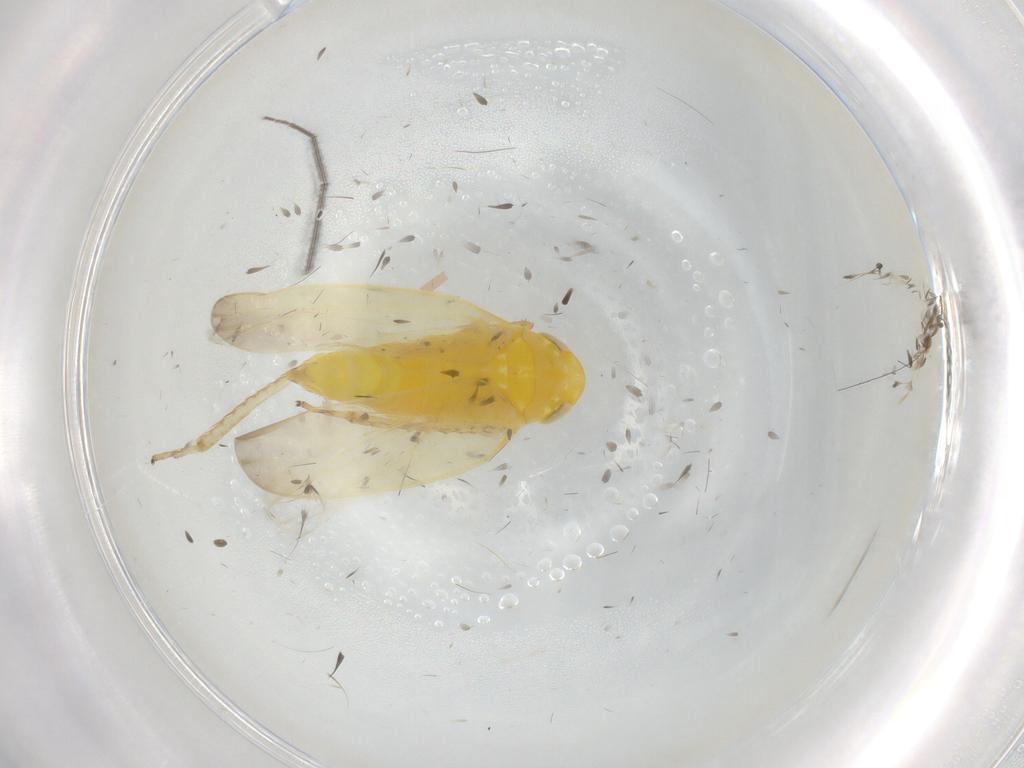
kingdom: Animalia
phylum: Arthropoda
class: Insecta
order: Hemiptera
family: Cicadellidae
